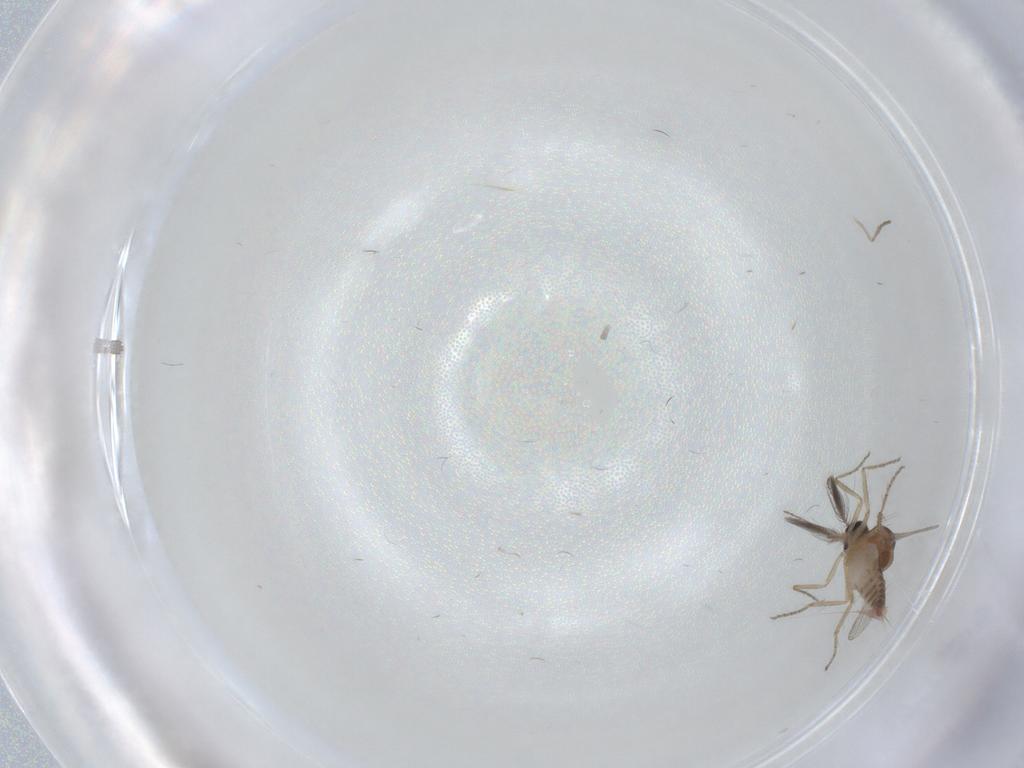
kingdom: Animalia
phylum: Arthropoda
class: Insecta
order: Diptera
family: Ceratopogonidae
